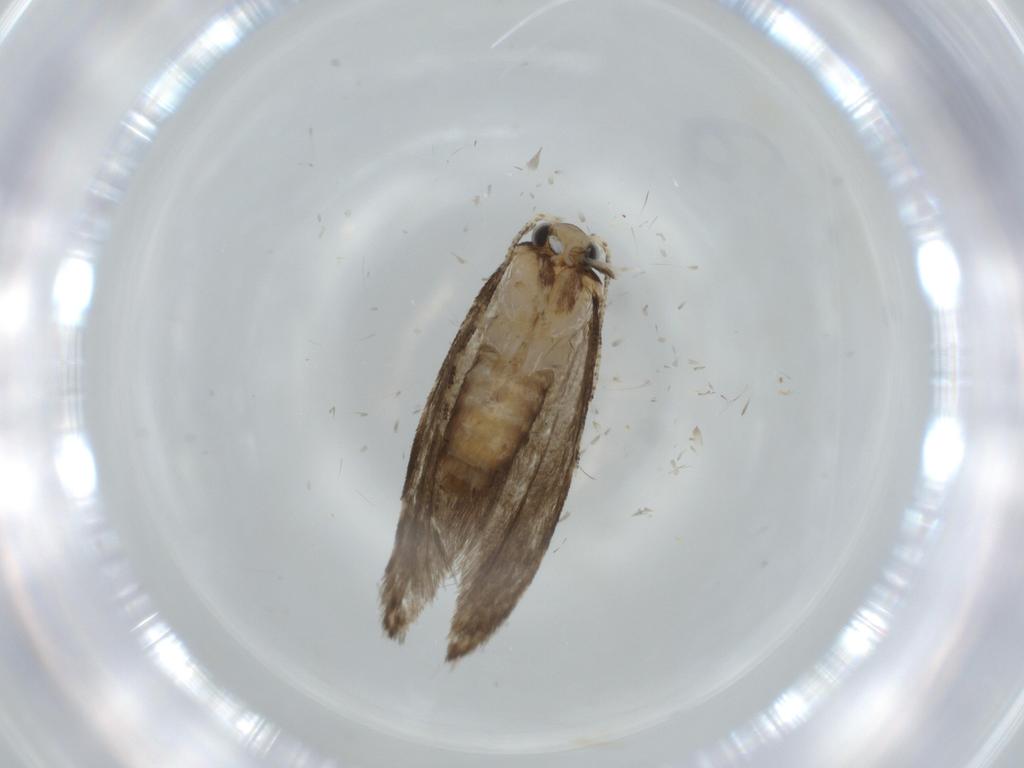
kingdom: Animalia
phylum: Arthropoda
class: Insecta
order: Lepidoptera
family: Tineidae
